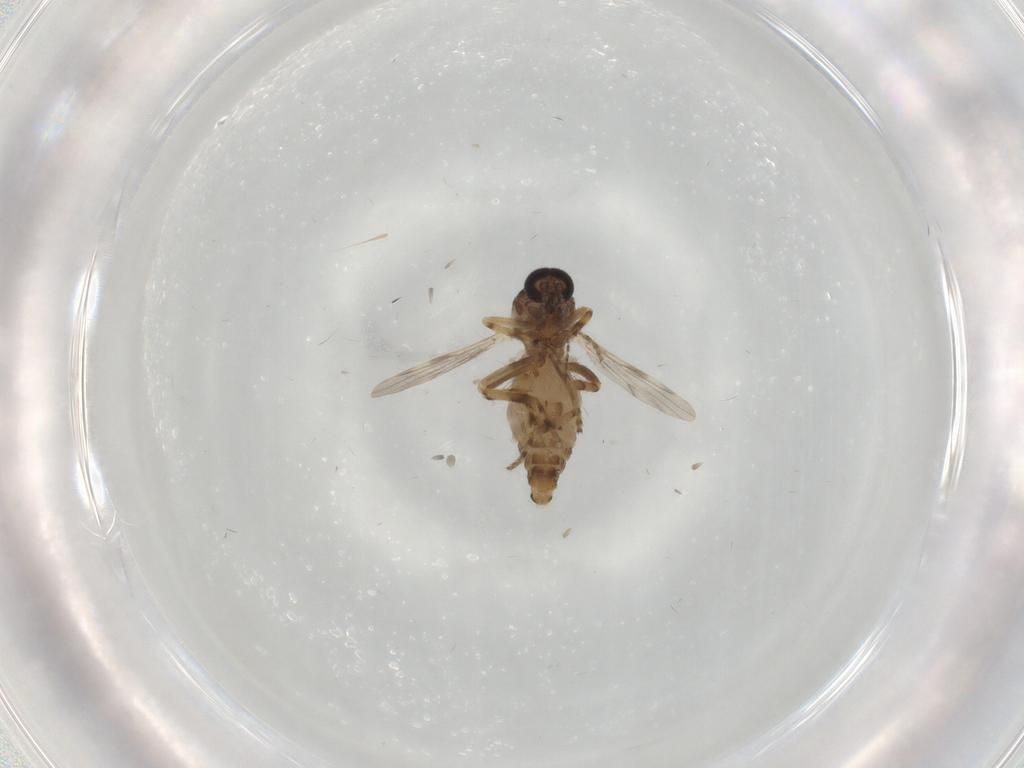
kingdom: Animalia
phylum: Arthropoda
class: Insecta
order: Diptera
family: Ceratopogonidae
